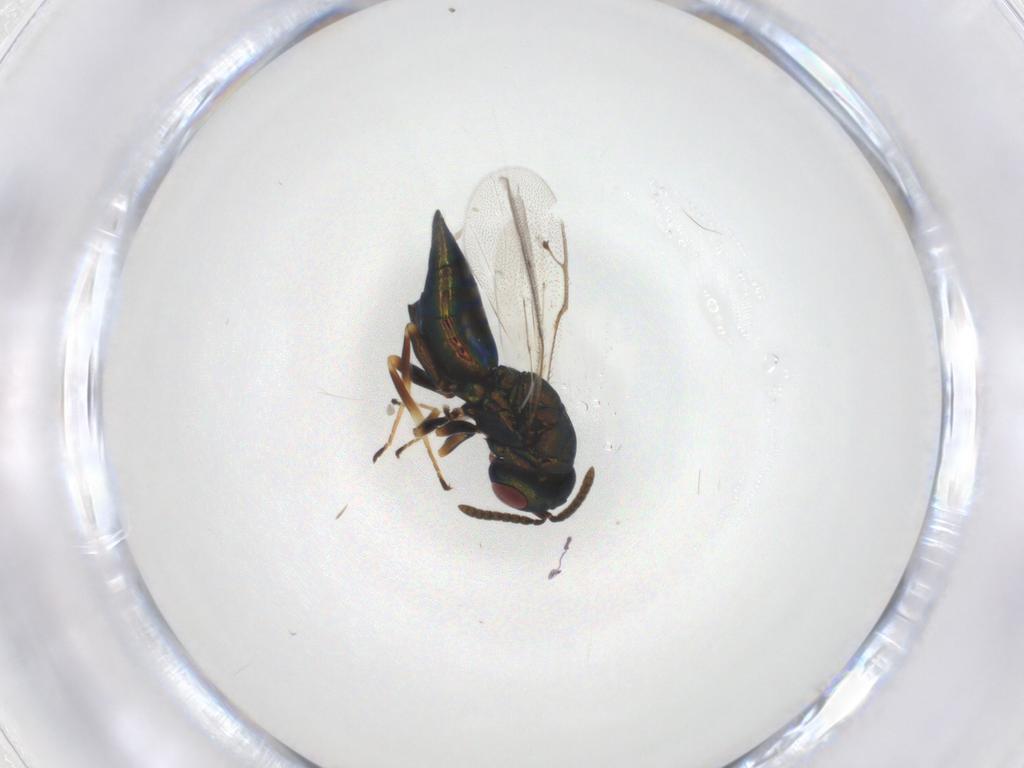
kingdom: Animalia
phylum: Arthropoda
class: Insecta
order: Hymenoptera
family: Pteromalidae
